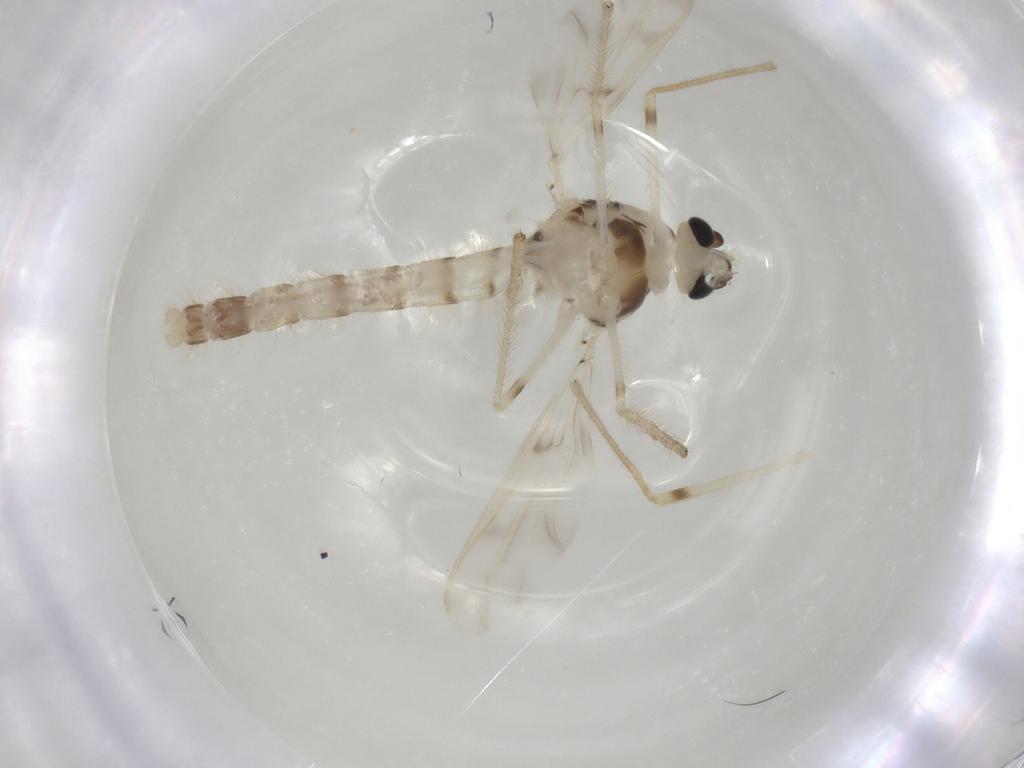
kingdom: Animalia
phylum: Arthropoda
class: Insecta
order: Diptera
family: Chironomidae
